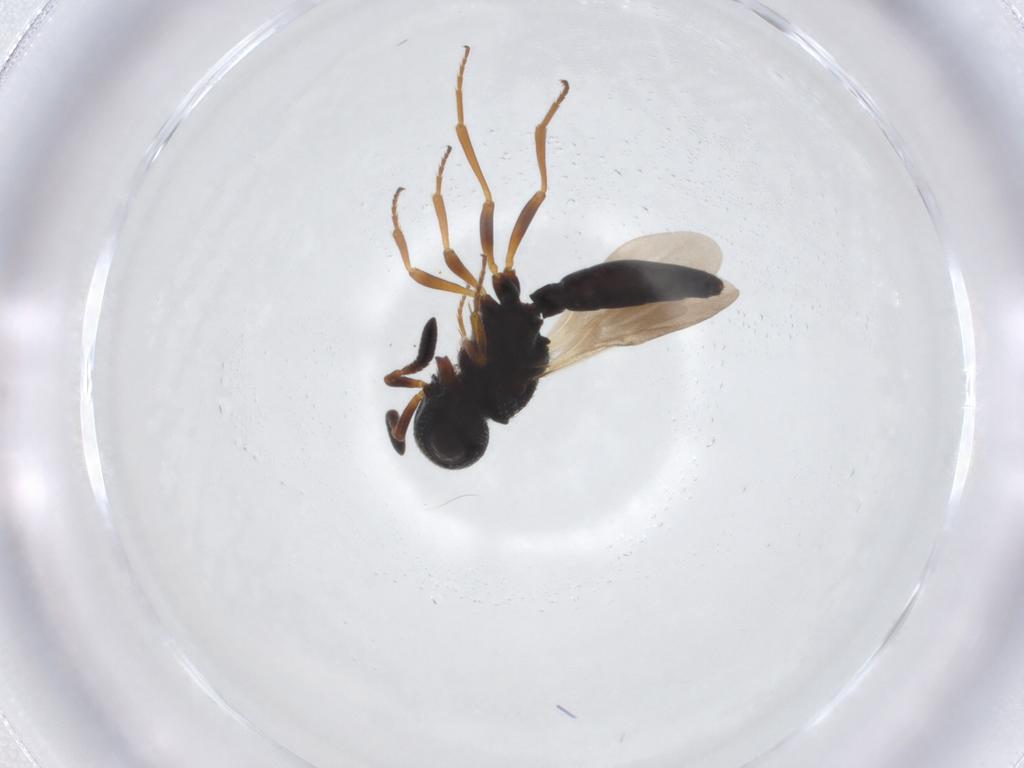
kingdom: Animalia
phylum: Arthropoda
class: Insecta
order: Hymenoptera
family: Scelionidae
